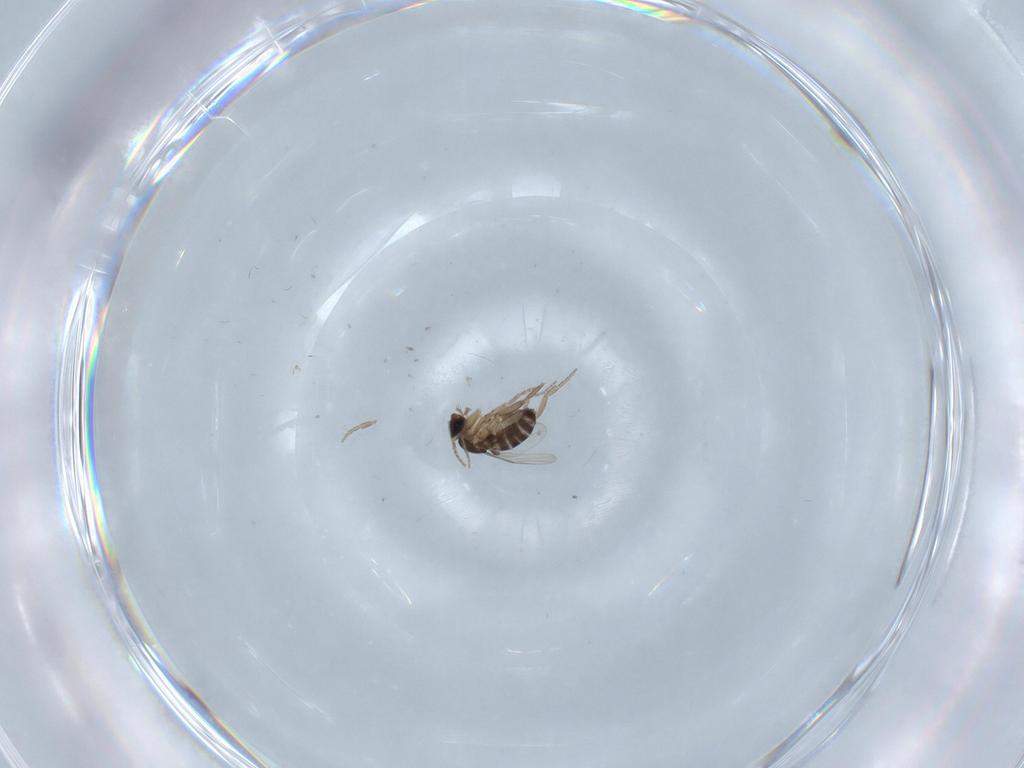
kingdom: Animalia
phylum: Arthropoda
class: Insecta
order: Diptera
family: Phoridae
